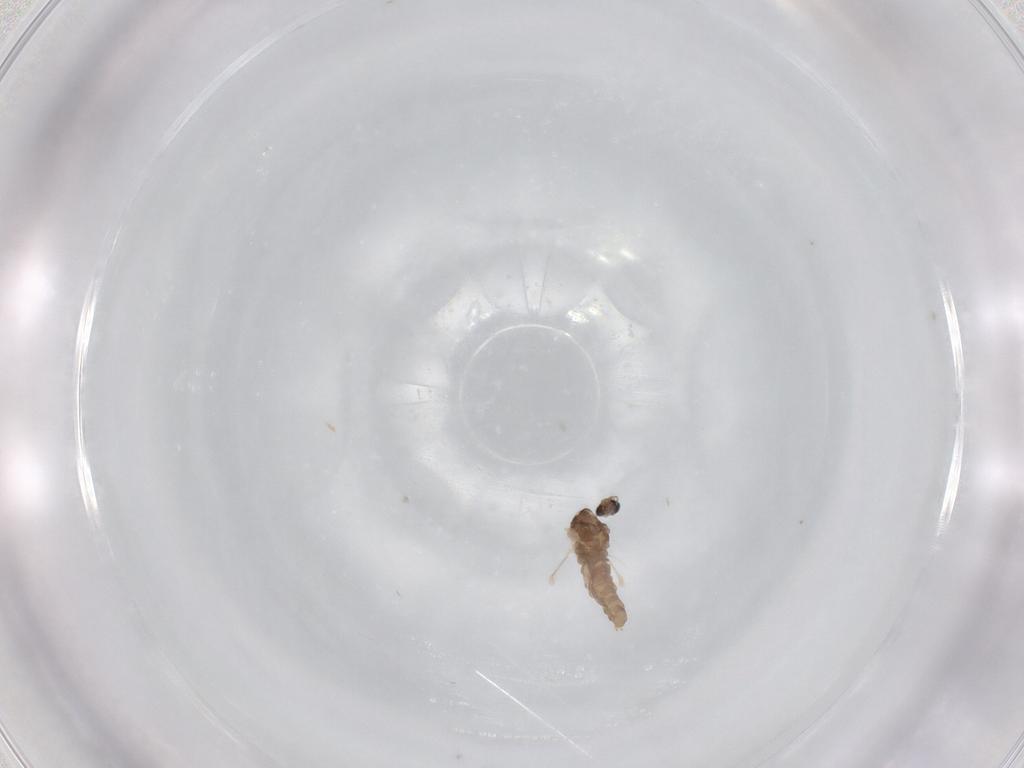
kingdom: Animalia
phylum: Arthropoda
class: Insecta
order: Diptera
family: Cecidomyiidae
